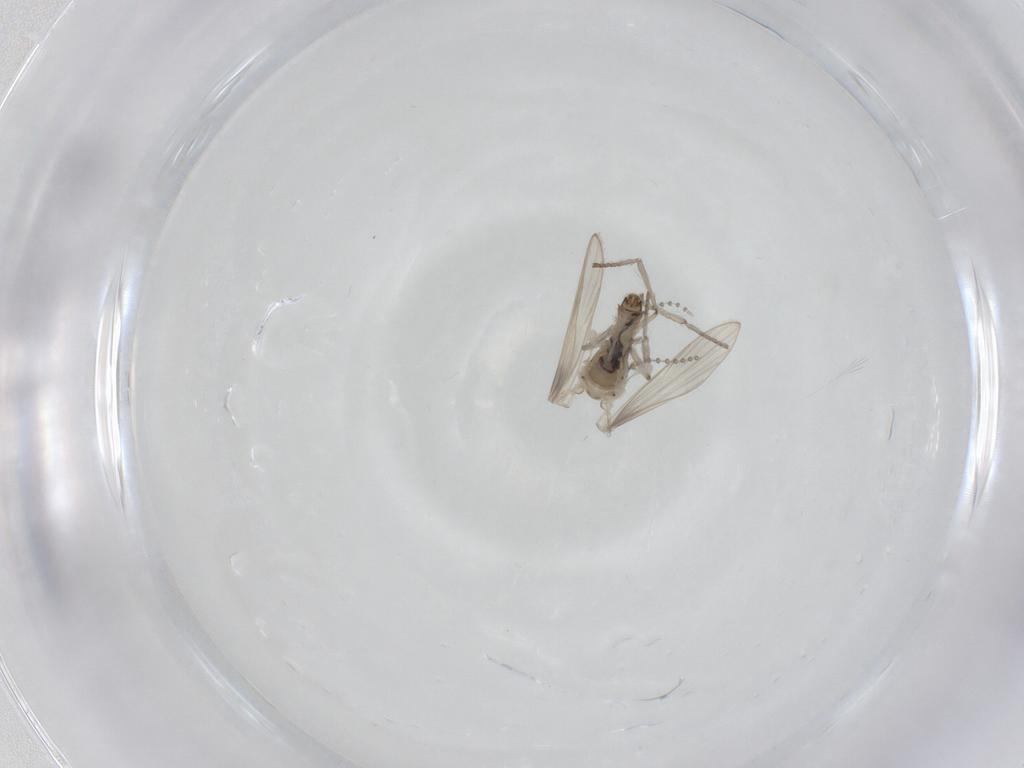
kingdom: Animalia
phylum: Arthropoda
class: Insecta
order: Diptera
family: Psychodidae
